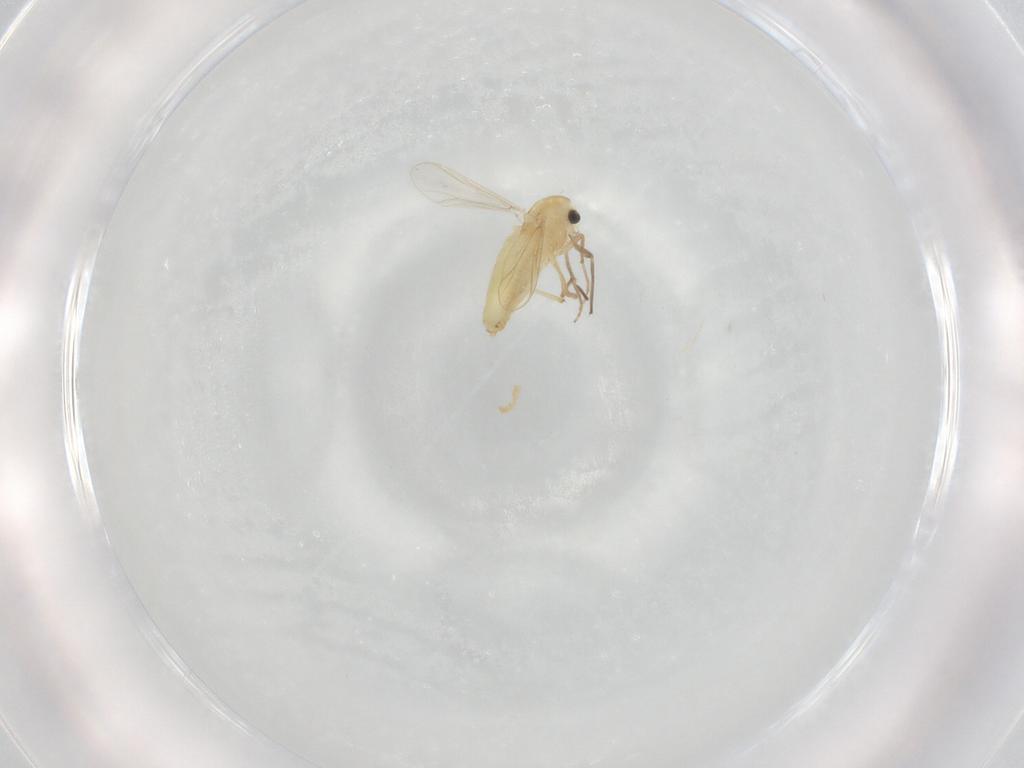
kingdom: Animalia
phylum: Arthropoda
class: Insecta
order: Diptera
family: Chironomidae
